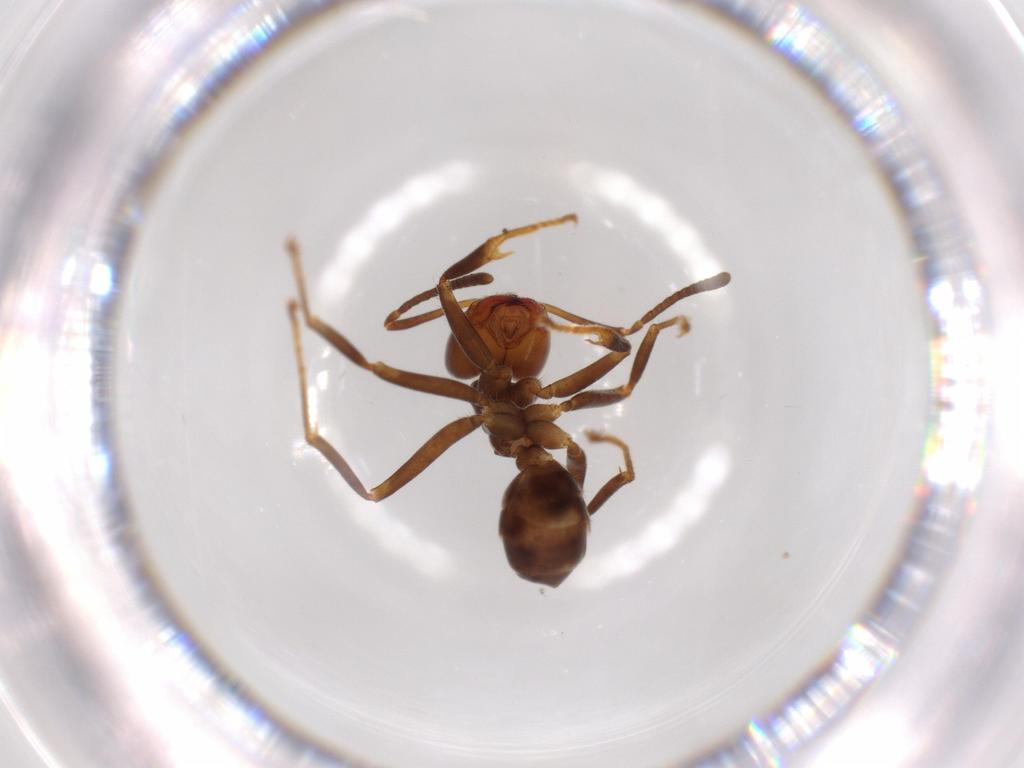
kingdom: Animalia
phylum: Arthropoda
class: Insecta
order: Hymenoptera
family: Formicidae
